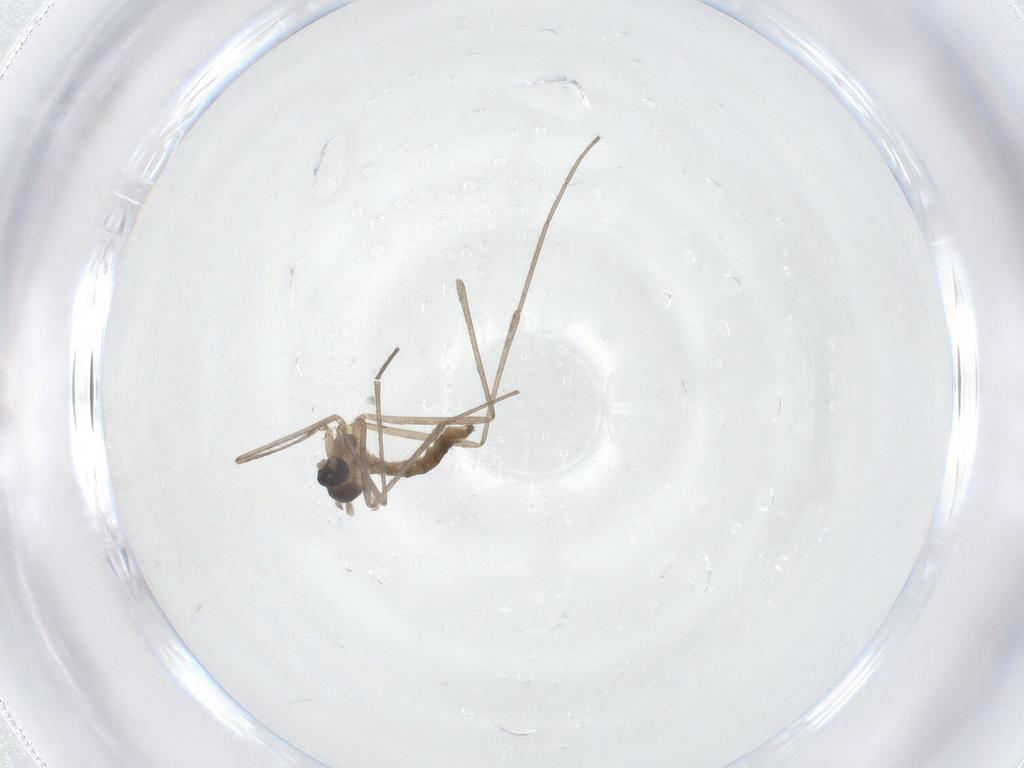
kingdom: Animalia
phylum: Arthropoda
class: Insecta
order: Diptera
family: Cecidomyiidae
